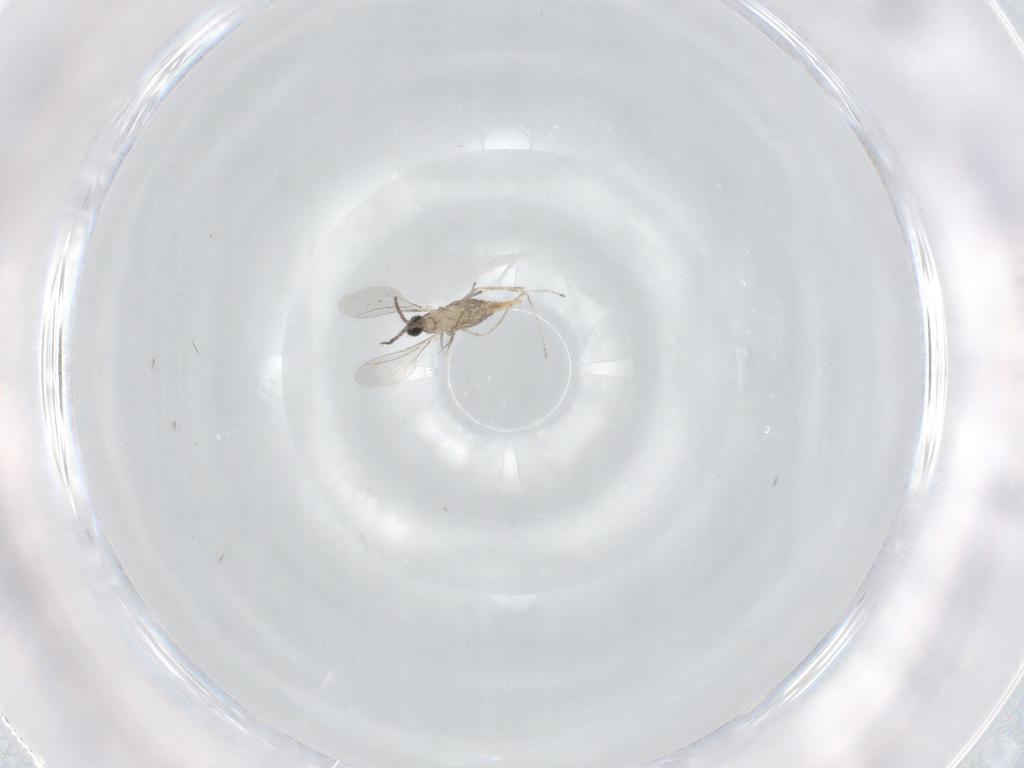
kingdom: Animalia
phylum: Arthropoda
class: Insecta
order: Diptera
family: Cecidomyiidae
